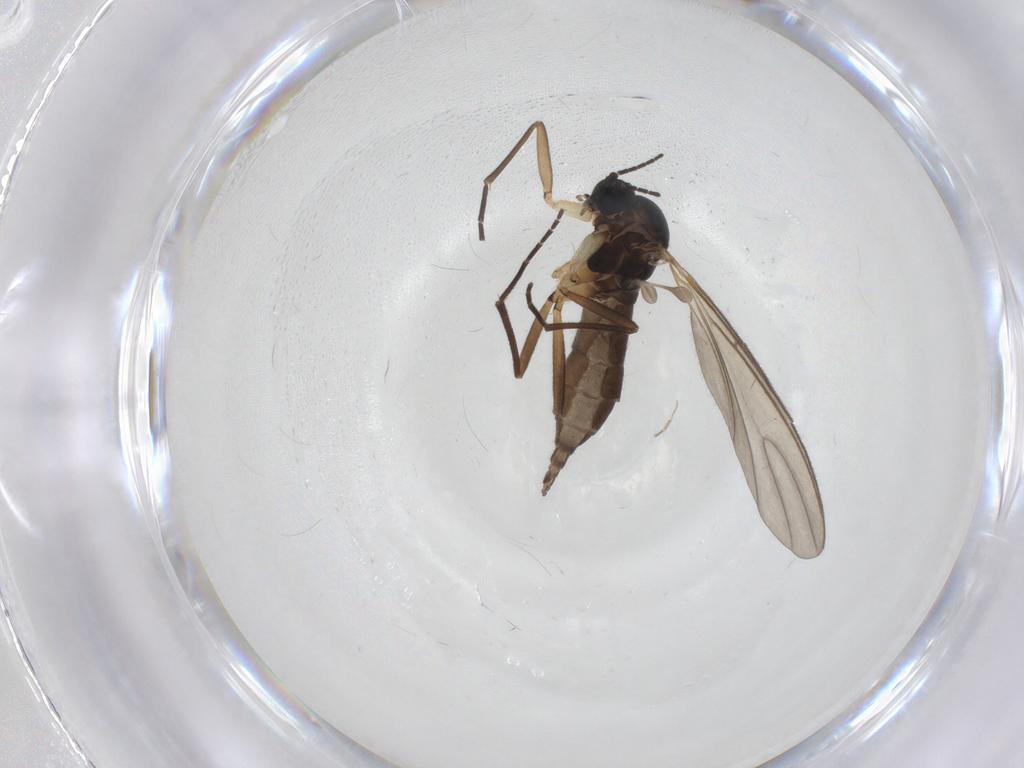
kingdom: Animalia
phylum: Arthropoda
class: Insecta
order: Diptera
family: Sciaridae
